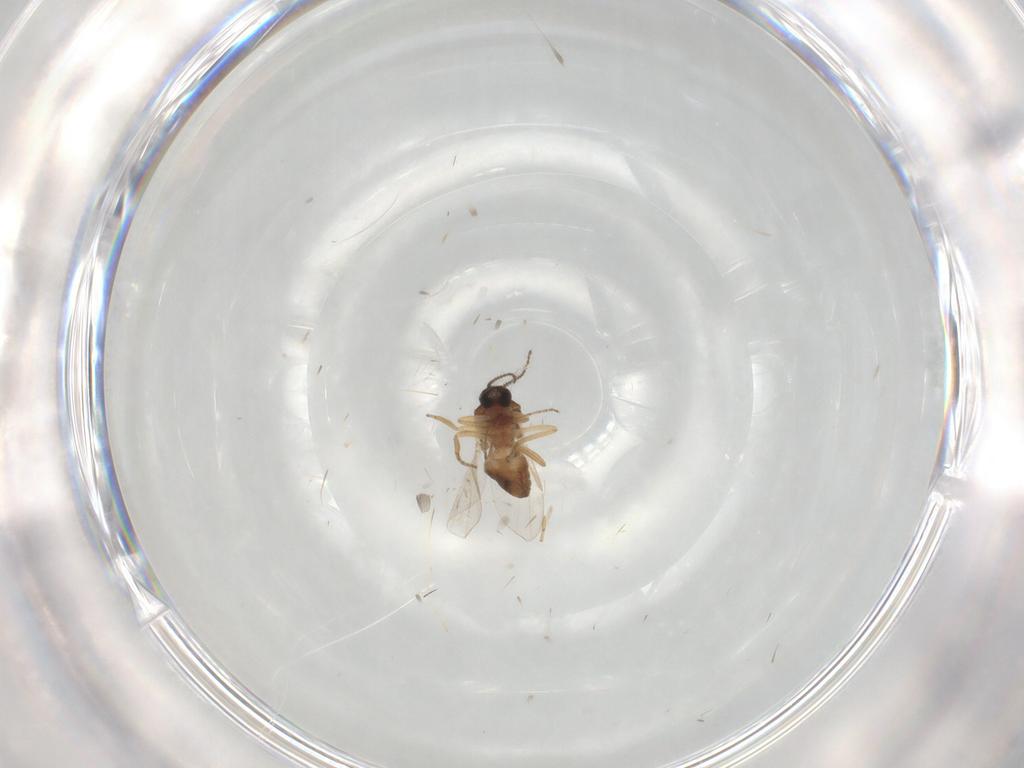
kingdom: Animalia
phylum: Arthropoda
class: Insecta
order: Diptera
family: Ceratopogonidae
